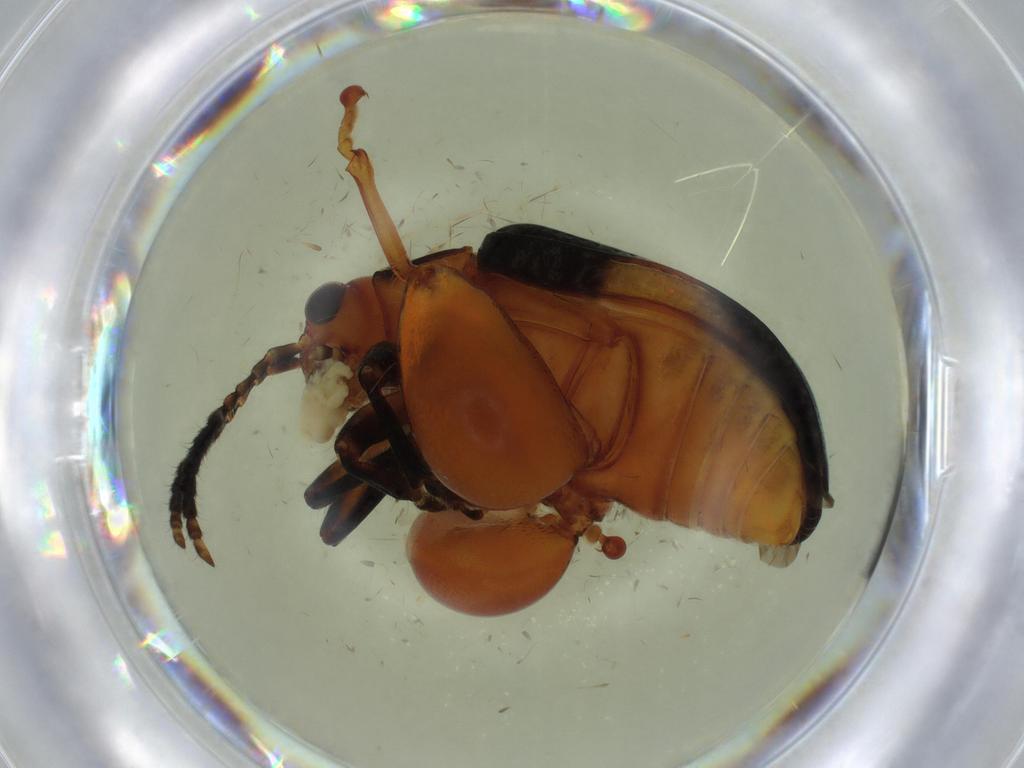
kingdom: Animalia
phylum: Arthropoda
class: Insecta
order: Coleoptera
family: Chrysomelidae
